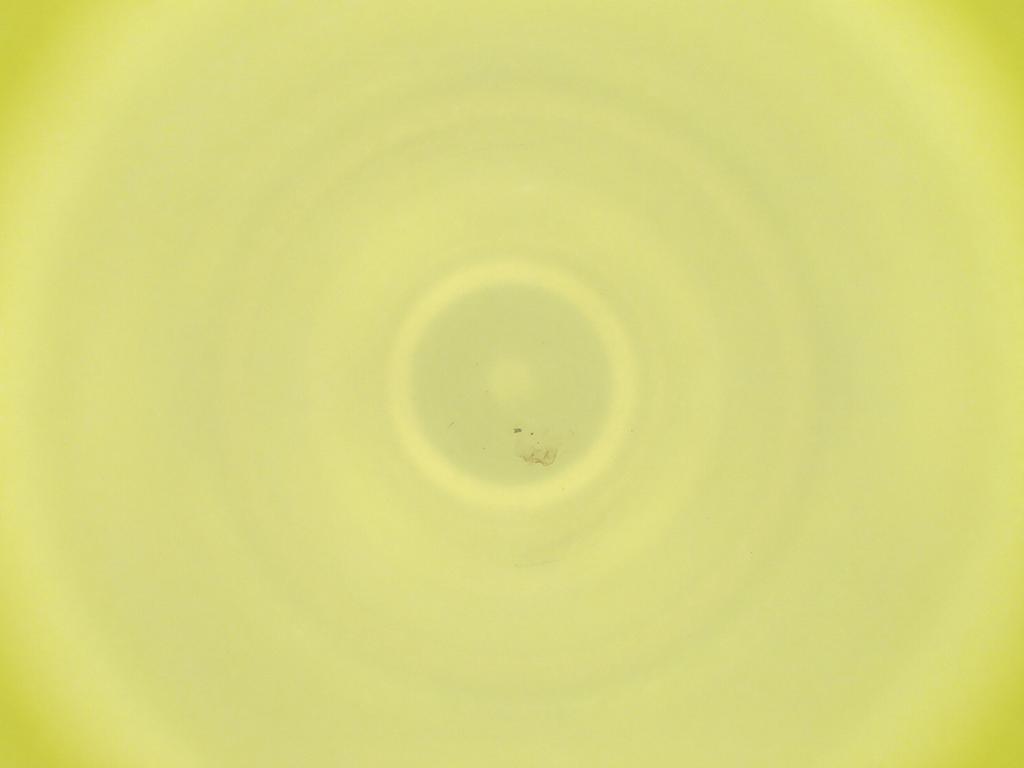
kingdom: Animalia
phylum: Arthropoda
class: Insecta
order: Diptera
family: Cecidomyiidae
